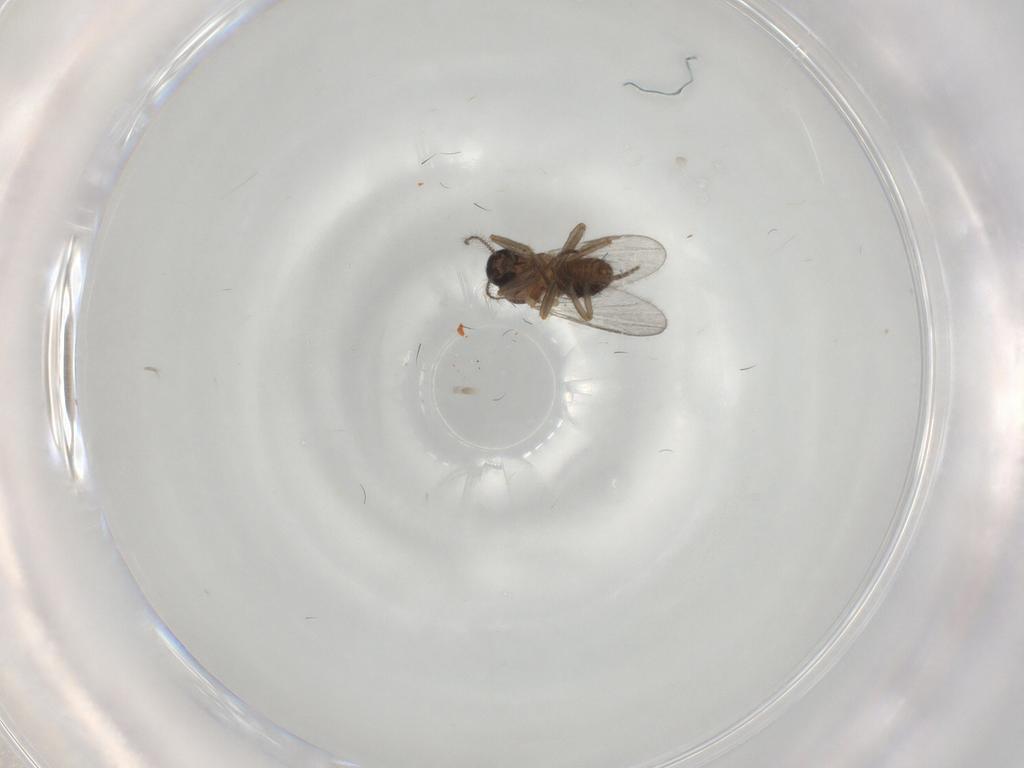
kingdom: Animalia
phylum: Arthropoda
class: Insecta
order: Diptera
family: Ceratopogonidae
